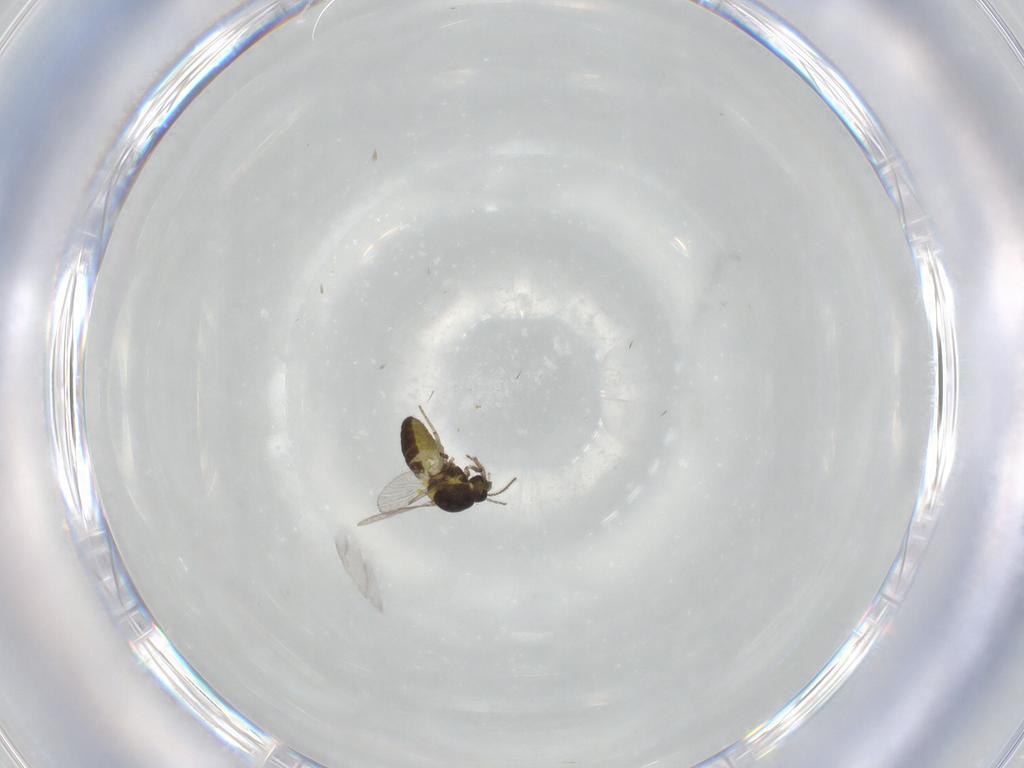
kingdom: Animalia
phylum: Arthropoda
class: Insecta
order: Diptera
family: Ceratopogonidae
